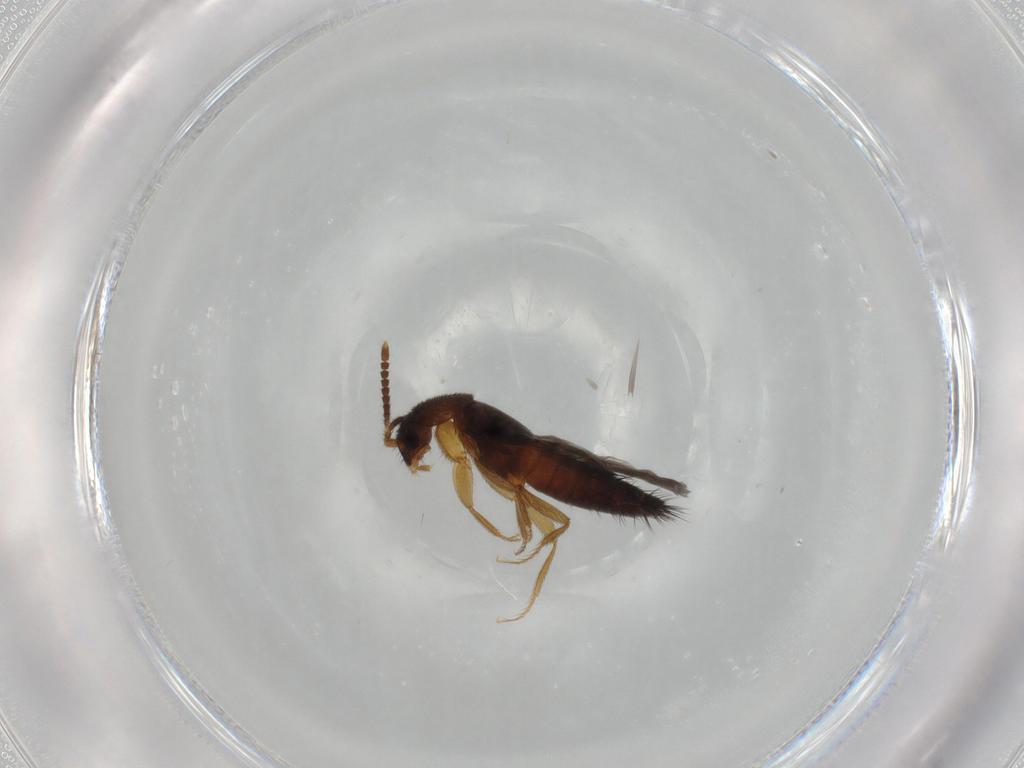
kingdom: Animalia
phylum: Arthropoda
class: Insecta
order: Coleoptera
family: Staphylinidae
